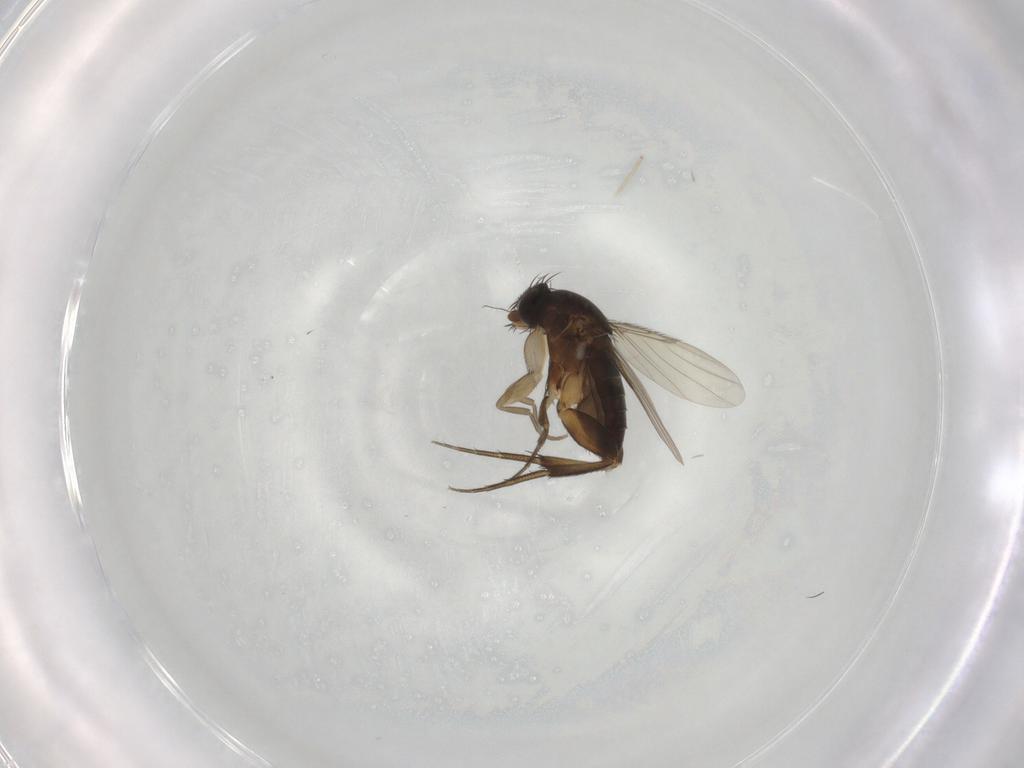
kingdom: Animalia
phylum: Arthropoda
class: Insecta
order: Diptera
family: Phoridae
